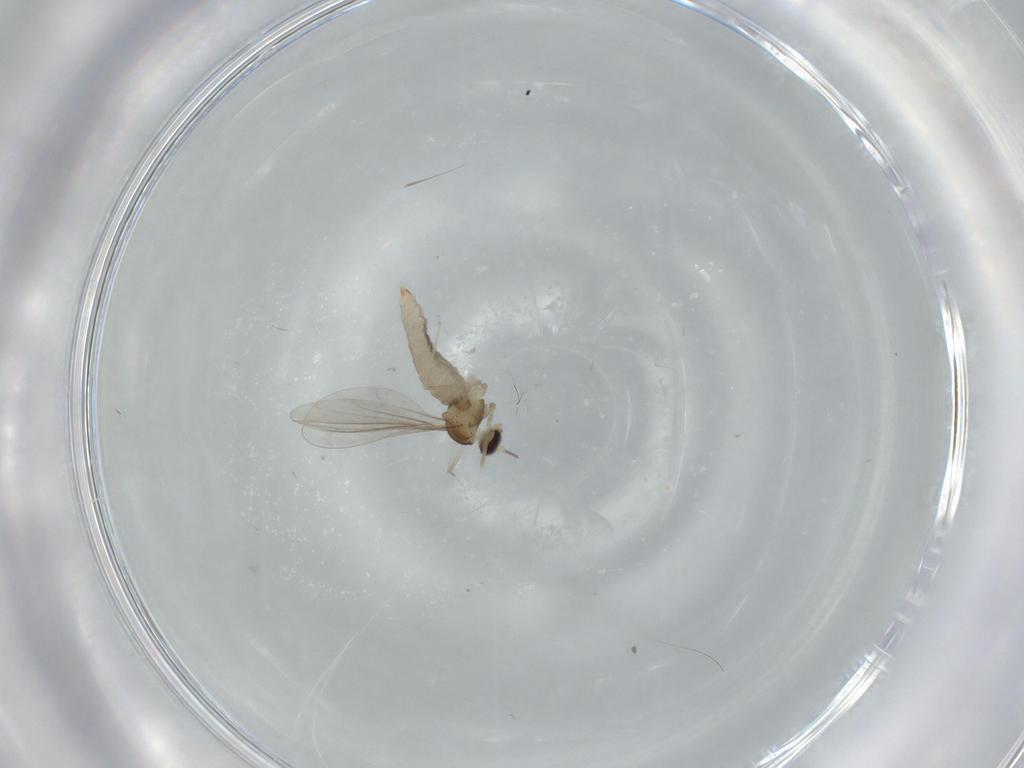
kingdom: Animalia
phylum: Arthropoda
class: Insecta
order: Diptera
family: Cecidomyiidae
